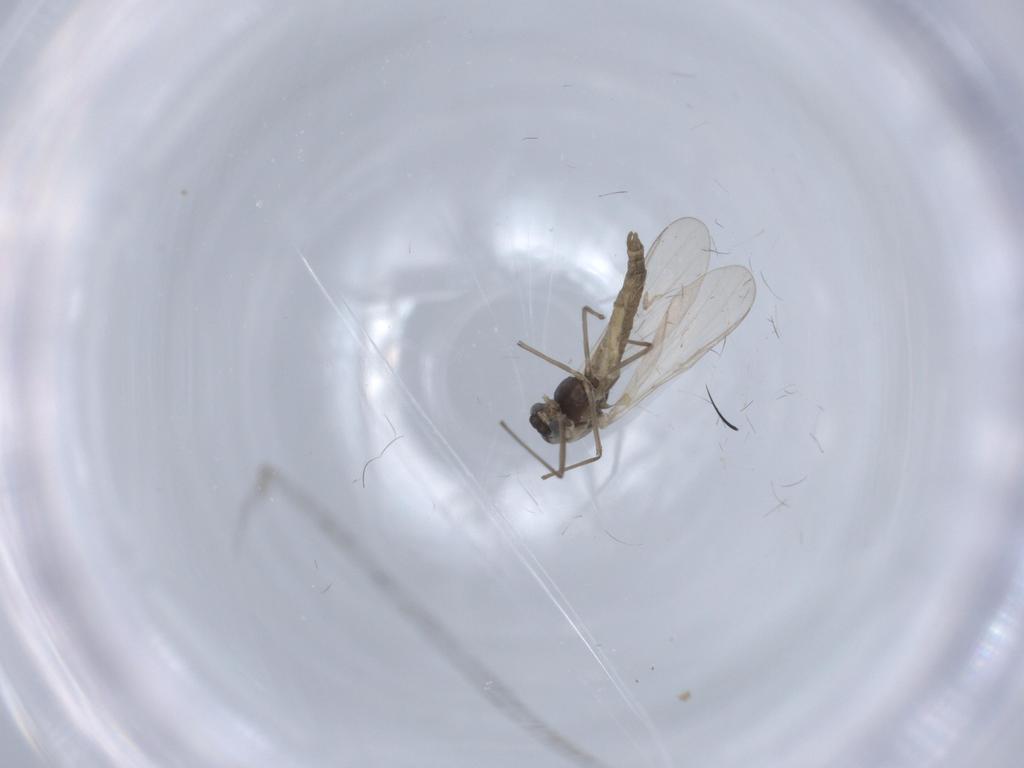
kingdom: Animalia
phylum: Arthropoda
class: Insecta
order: Diptera
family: Chironomidae
